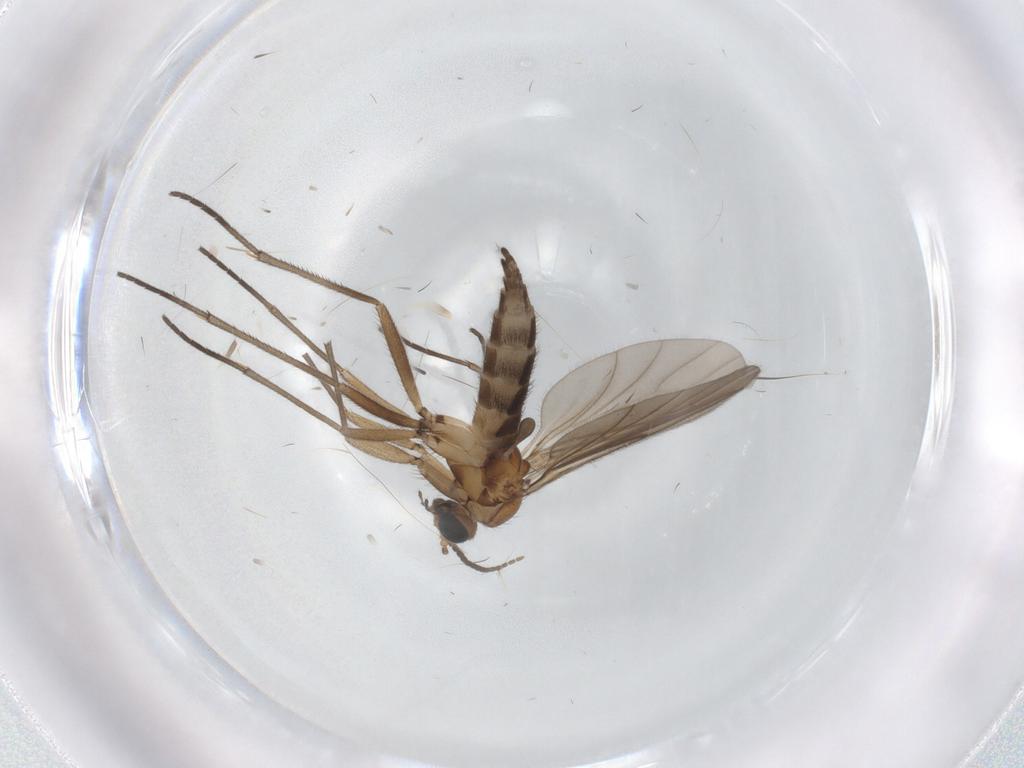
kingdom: Animalia
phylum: Arthropoda
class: Insecta
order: Diptera
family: Sciaridae
